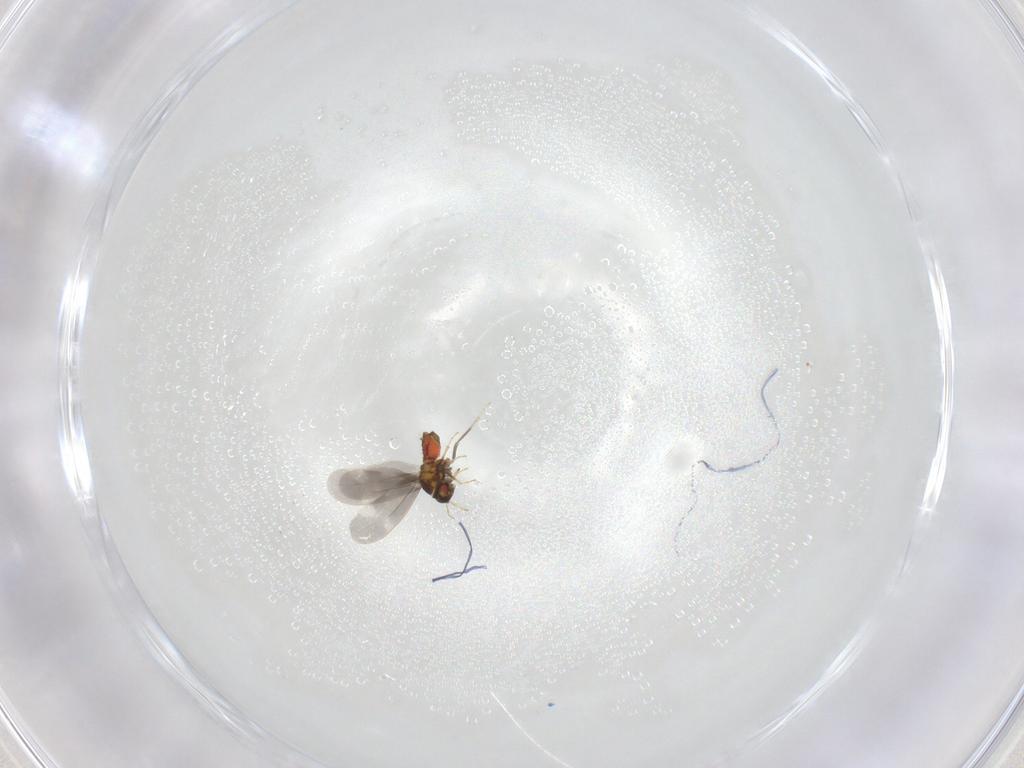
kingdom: Animalia
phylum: Arthropoda
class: Insecta
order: Hemiptera
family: Aleyrodidae
